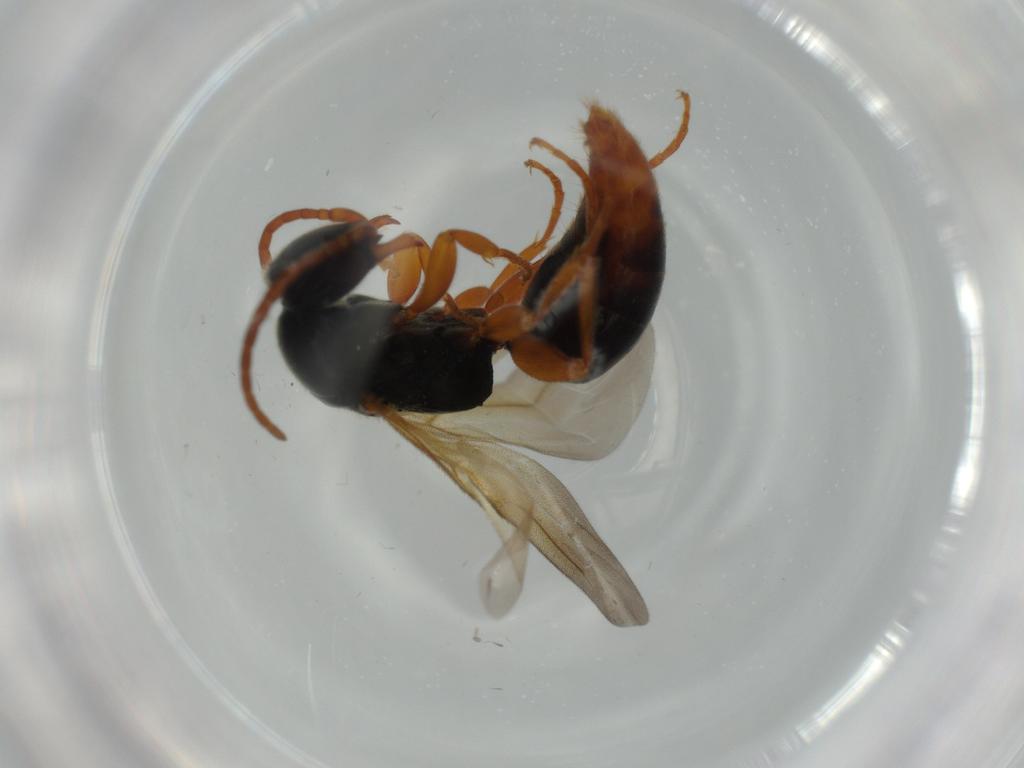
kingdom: Animalia
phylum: Arthropoda
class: Insecta
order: Hymenoptera
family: Bethylidae
